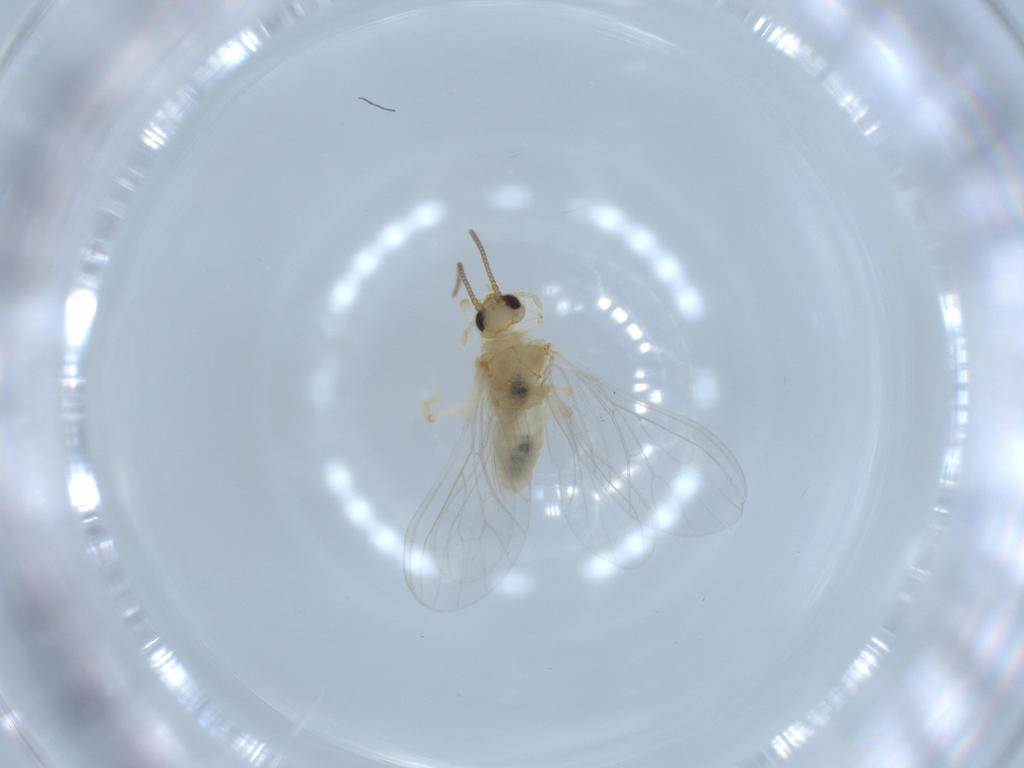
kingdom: Animalia
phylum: Arthropoda
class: Insecta
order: Neuroptera
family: Coniopterygidae
